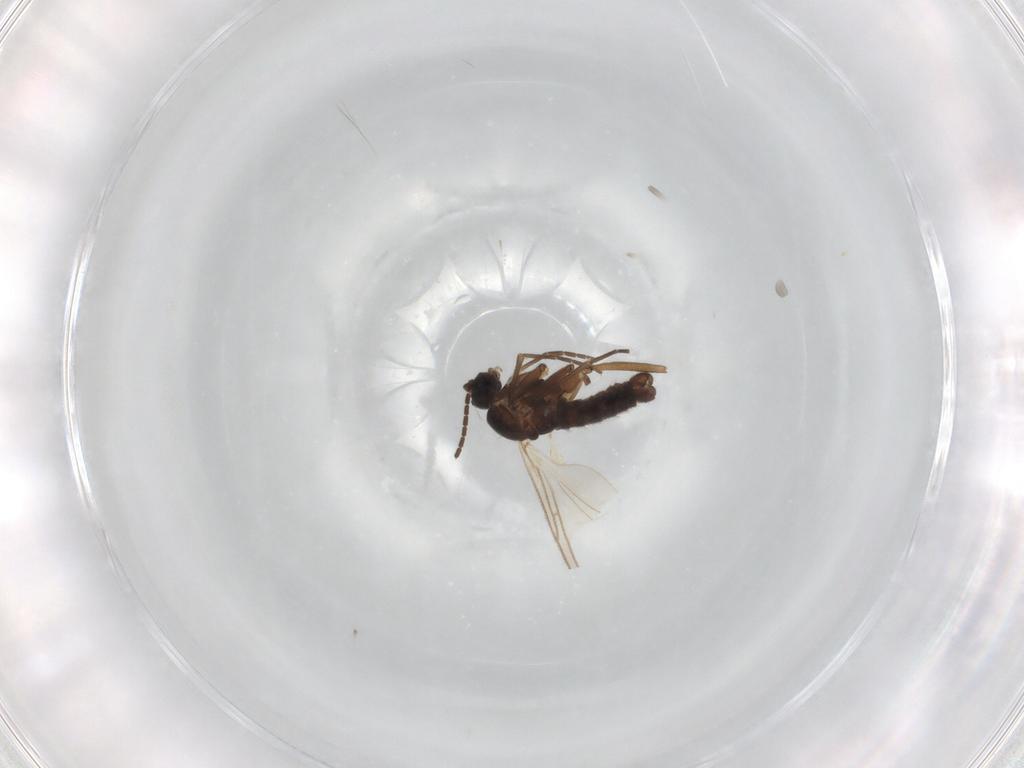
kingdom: Animalia
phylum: Arthropoda
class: Insecta
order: Diptera
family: Sciaridae
